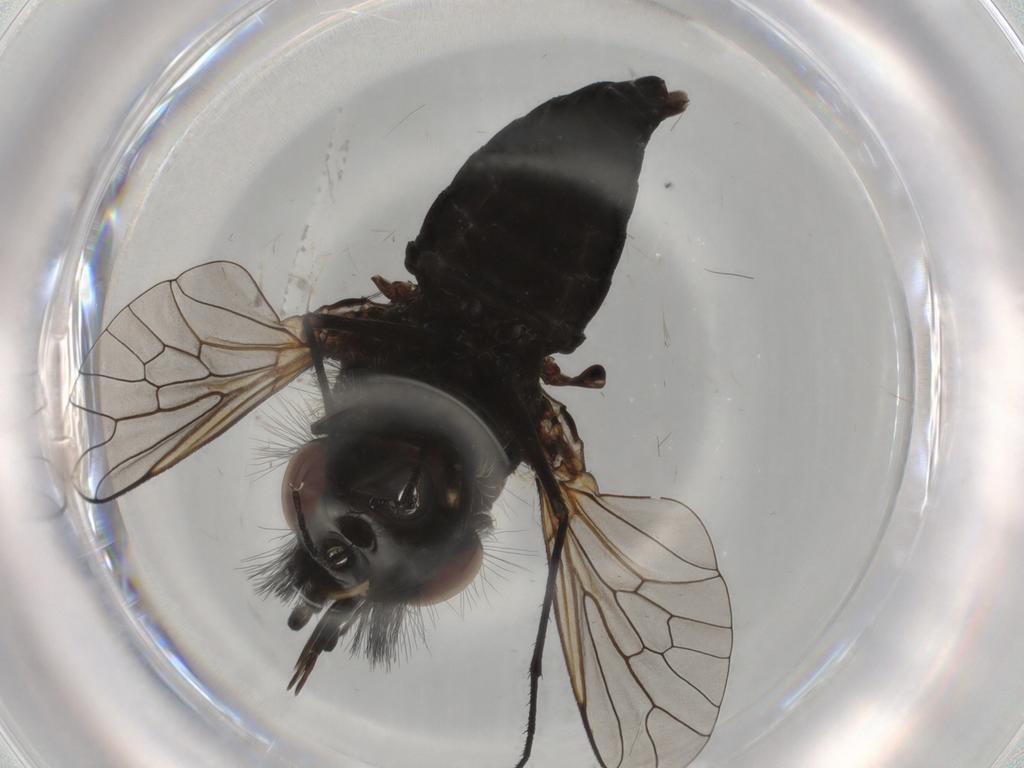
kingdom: Animalia
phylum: Arthropoda
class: Insecta
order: Diptera
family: Bombyliidae
